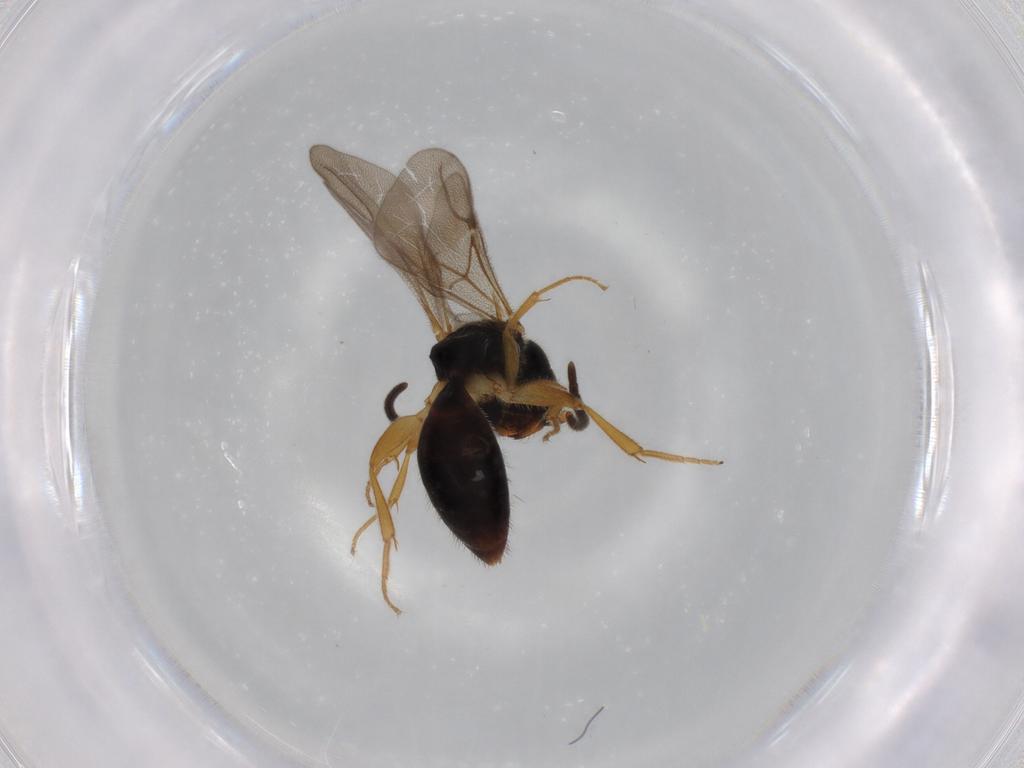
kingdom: Animalia
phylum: Arthropoda
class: Insecta
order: Hymenoptera
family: Bethylidae
